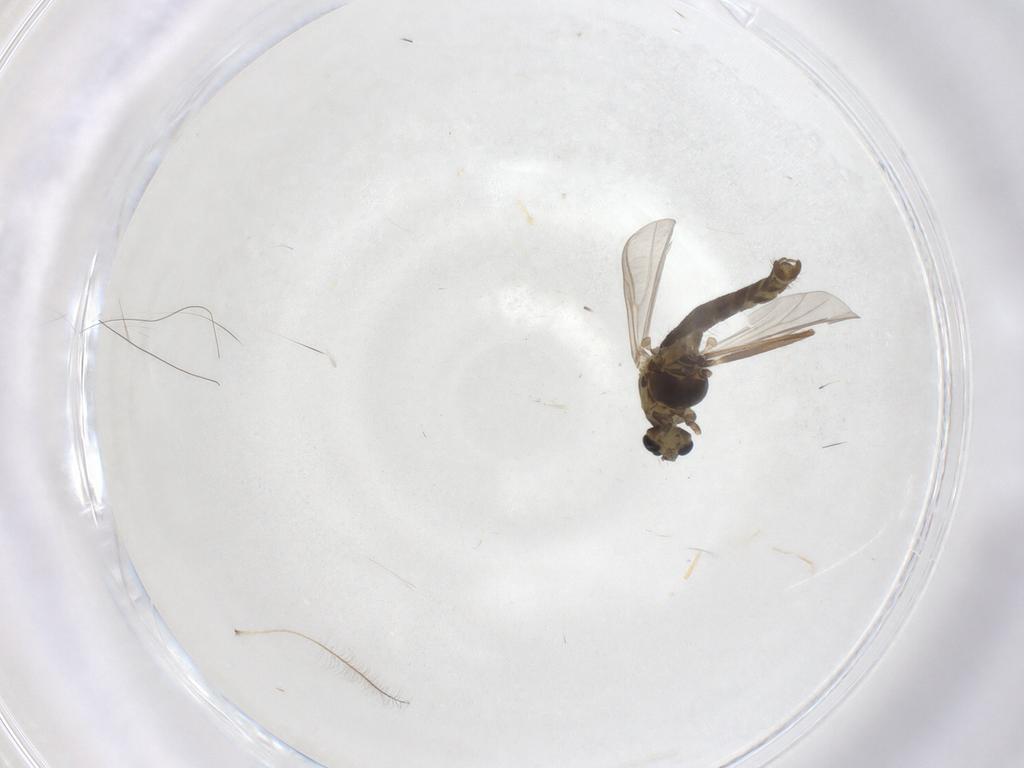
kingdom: Animalia
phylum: Arthropoda
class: Insecta
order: Diptera
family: Chironomidae
